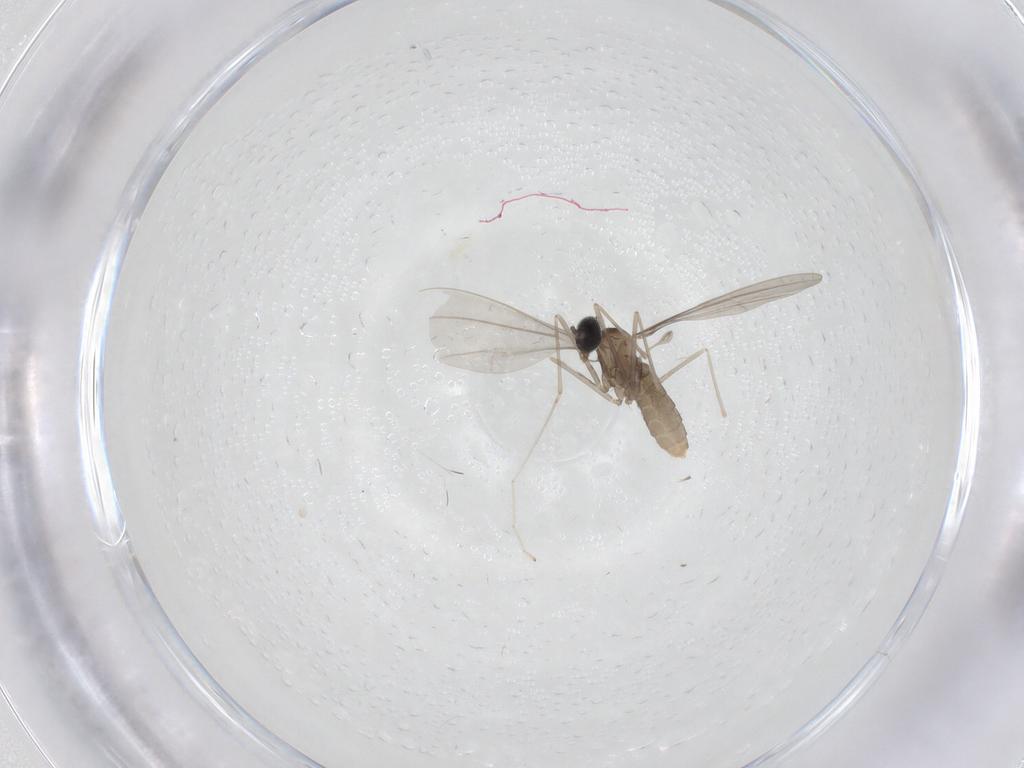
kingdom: Animalia
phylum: Arthropoda
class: Insecta
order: Diptera
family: Cecidomyiidae
